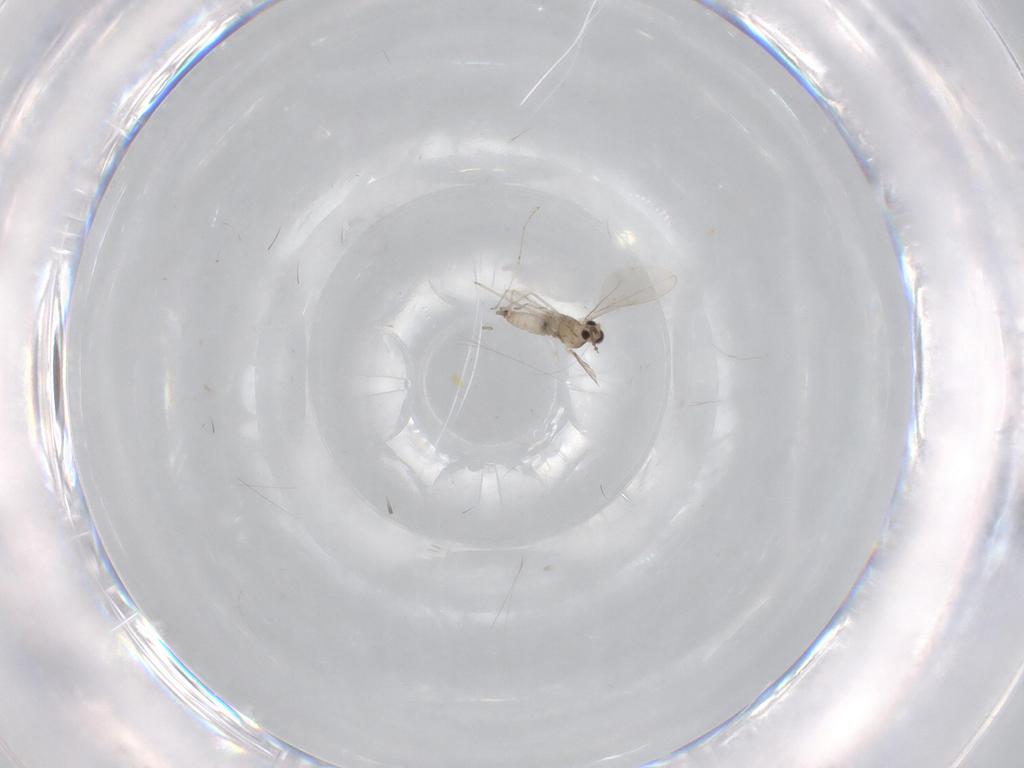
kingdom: Animalia
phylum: Arthropoda
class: Insecta
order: Diptera
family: Cecidomyiidae
